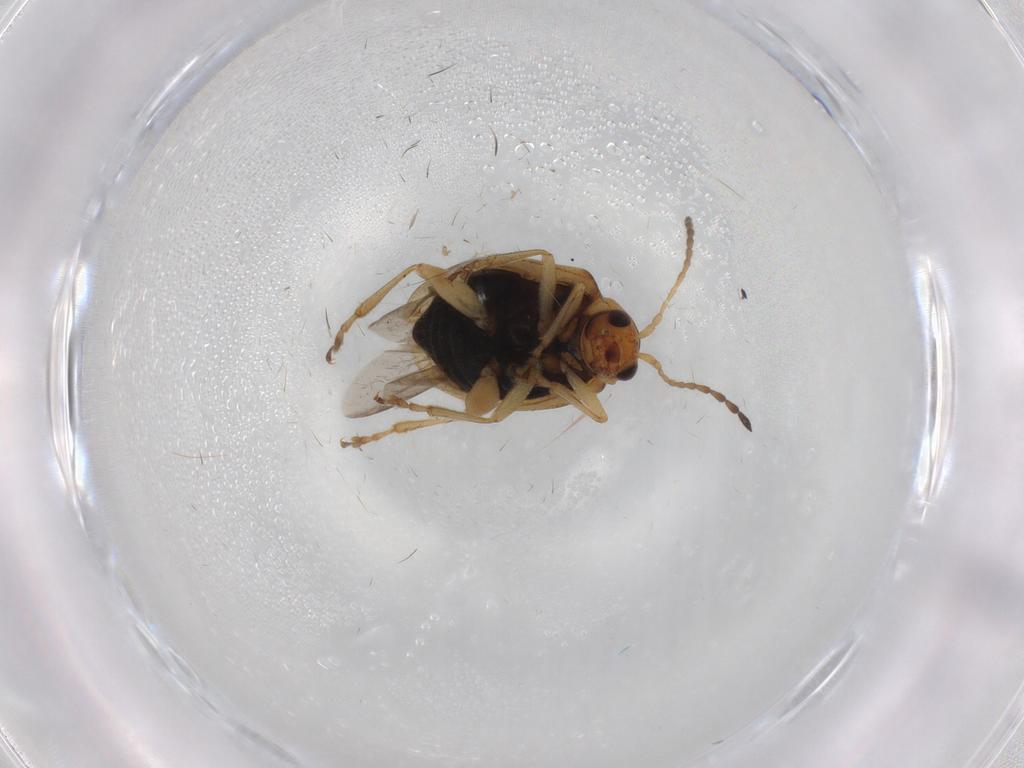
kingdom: Animalia
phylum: Arthropoda
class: Insecta
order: Coleoptera
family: Chrysomelidae
